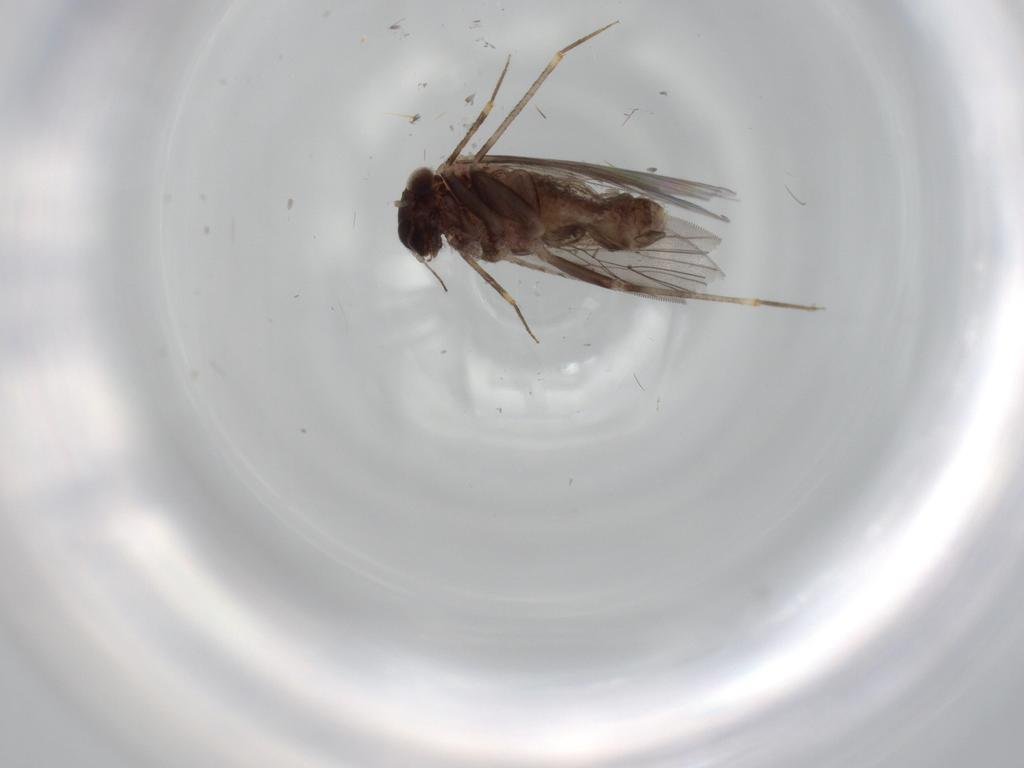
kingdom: Animalia
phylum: Arthropoda
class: Insecta
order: Psocodea
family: Lepidopsocidae
